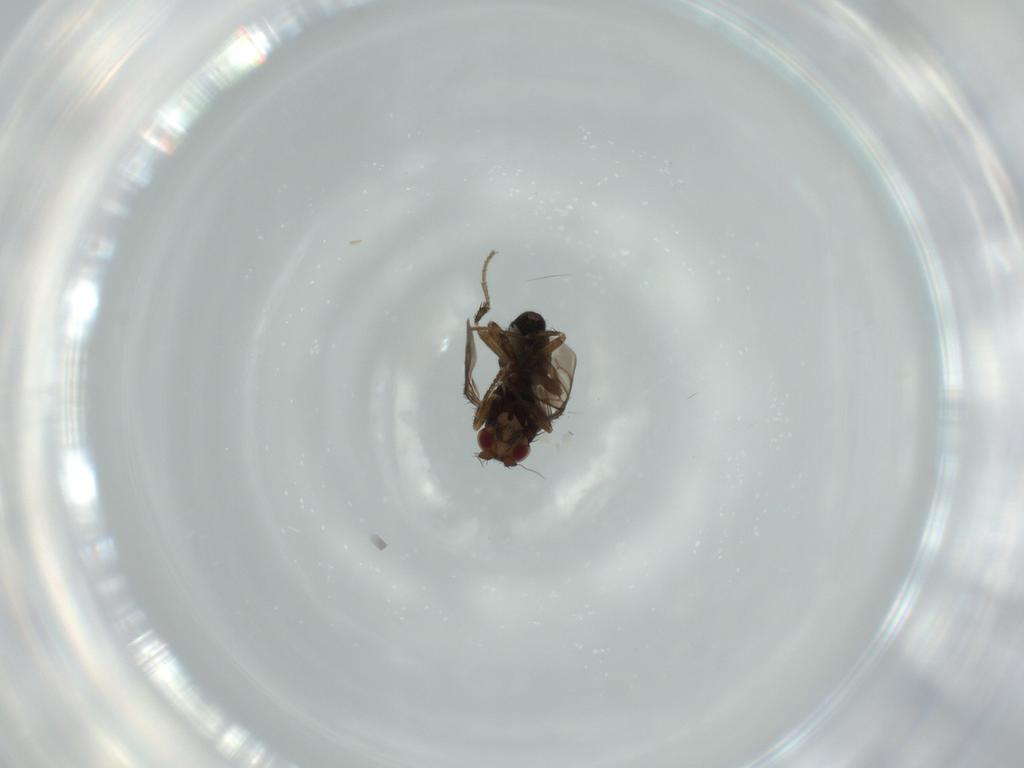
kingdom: Animalia
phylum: Arthropoda
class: Insecta
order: Diptera
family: Sphaeroceridae
